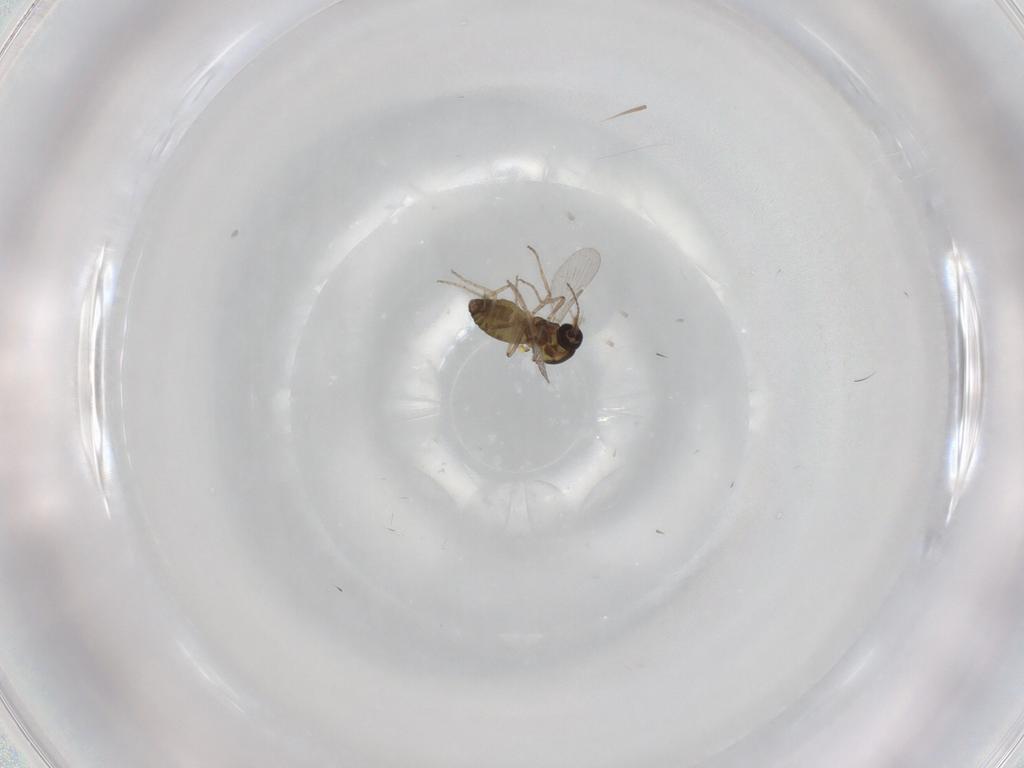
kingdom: Animalia
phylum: Arthropoda
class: Insecta
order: Diptera
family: Ceratopogonidae
